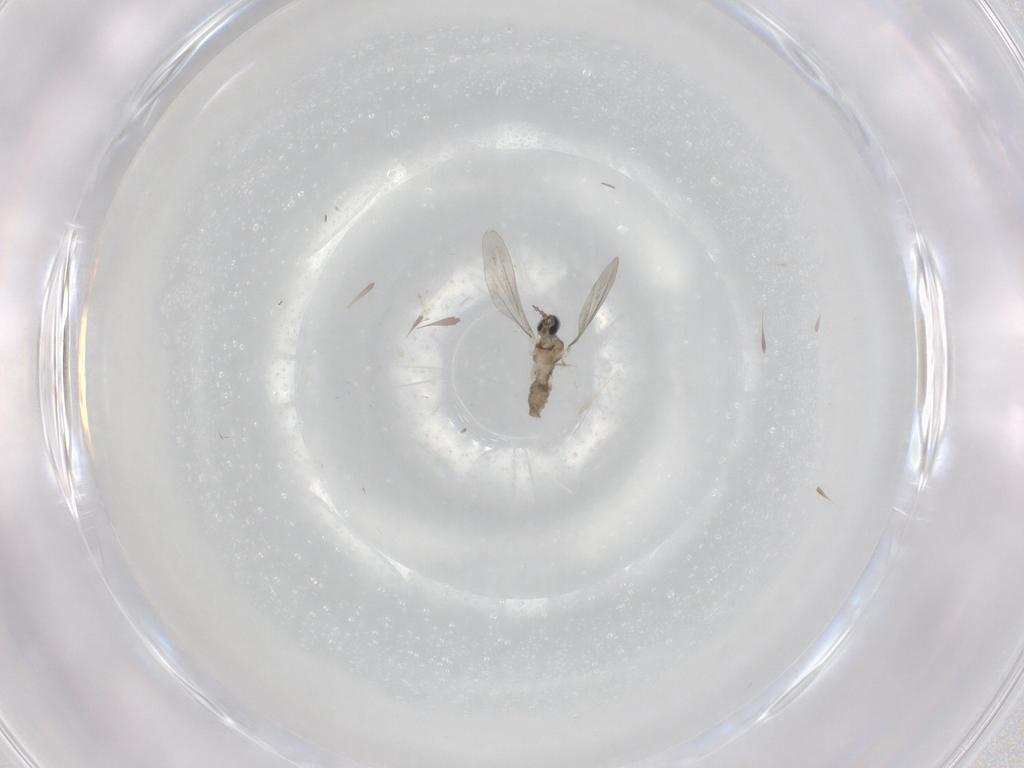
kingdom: Animalia
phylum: Arthropoda
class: Insecta
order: Diptera
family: Cecidomyiidae
